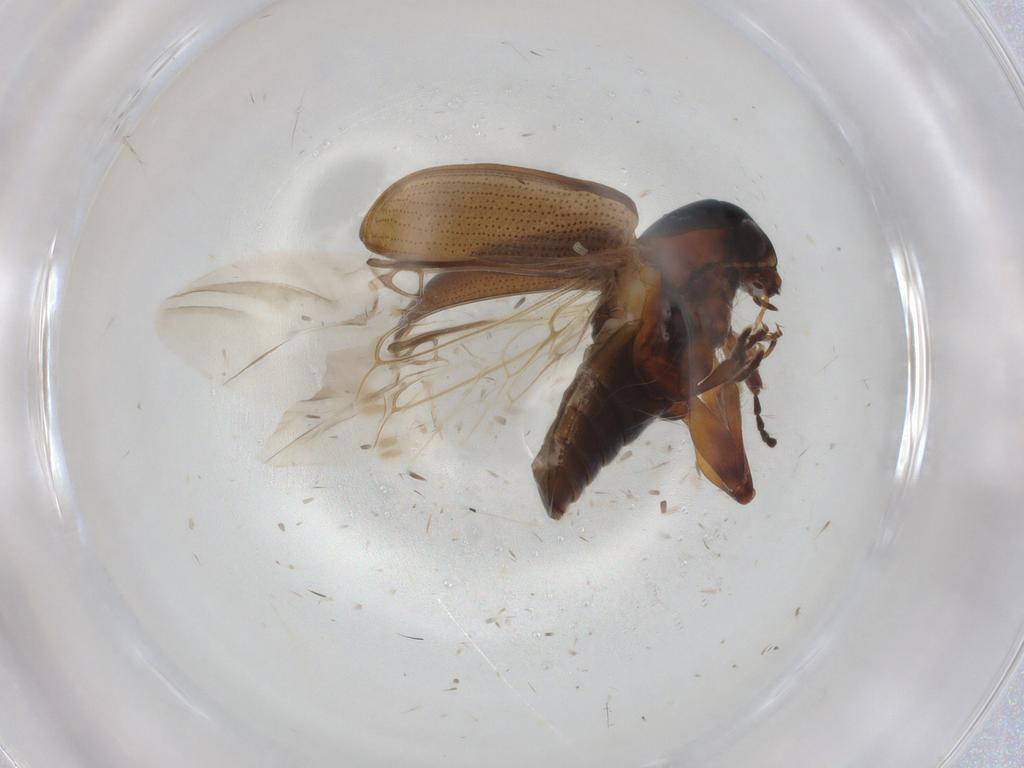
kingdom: Animalia
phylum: Arthropoda
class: Insecta
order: Coleoptera
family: Chrysomelidae
